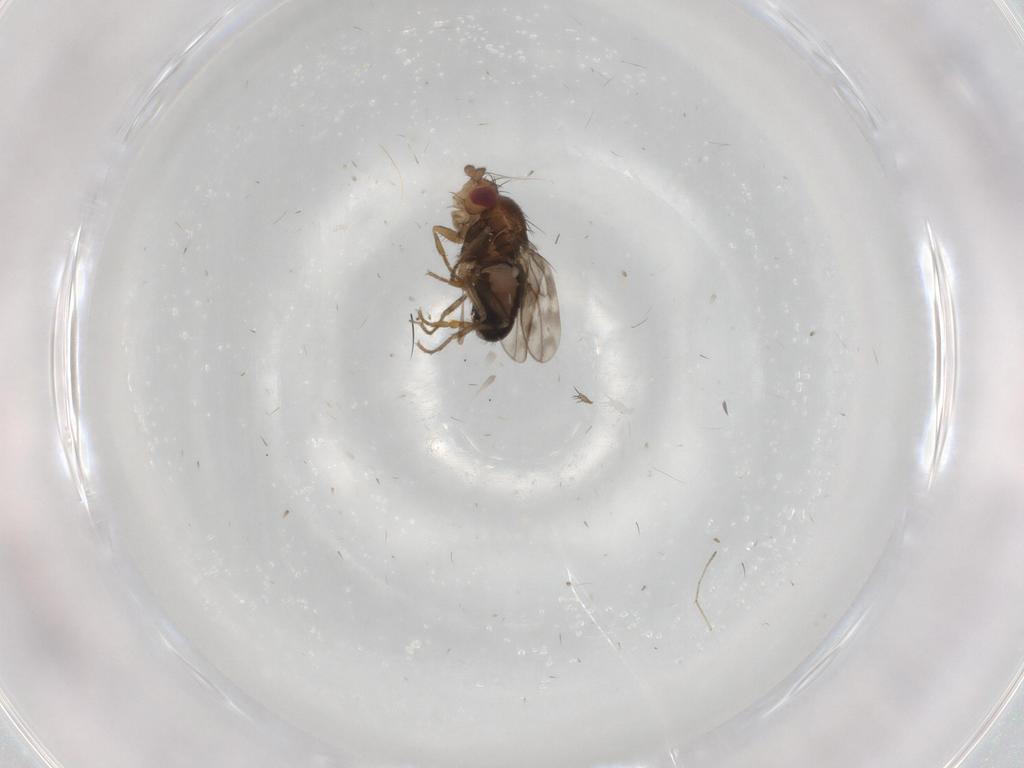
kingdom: Animalia
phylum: Arthropoda
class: Insecta
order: Diptera
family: Sphaeroceridae
